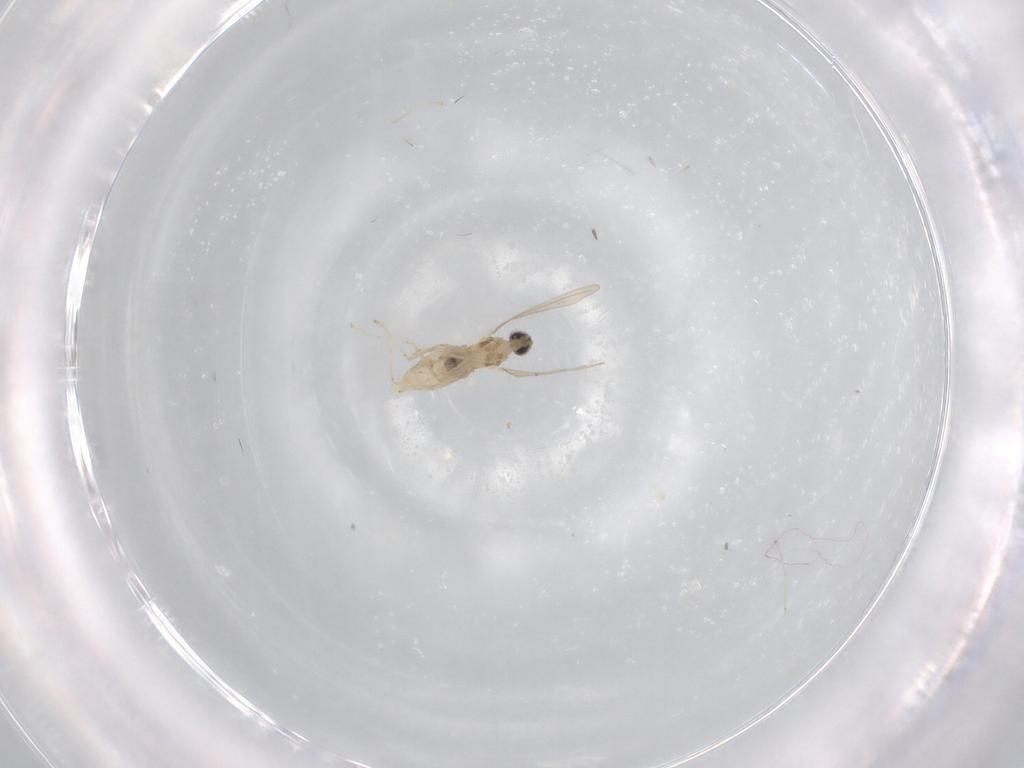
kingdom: Animalia
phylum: Arthropoda
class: Insecta
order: Diptera
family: Cecidomyiidae
